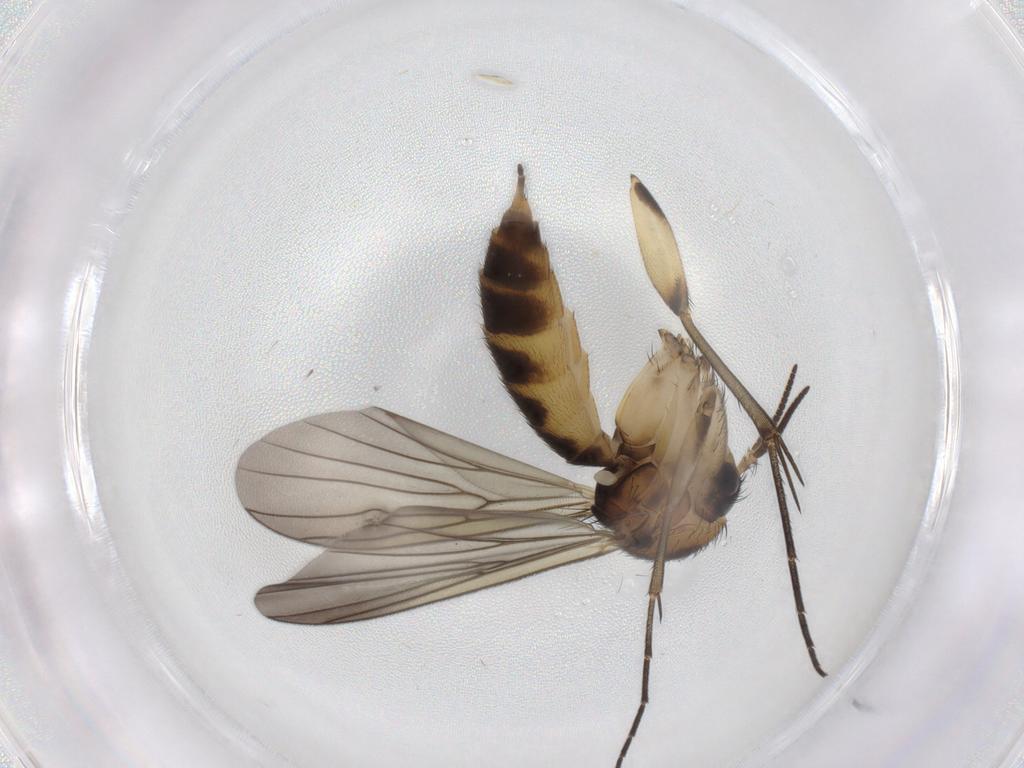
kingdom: Animalia
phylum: Arthropoda
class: Insecta
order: Diptera
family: Mycetophilidae
